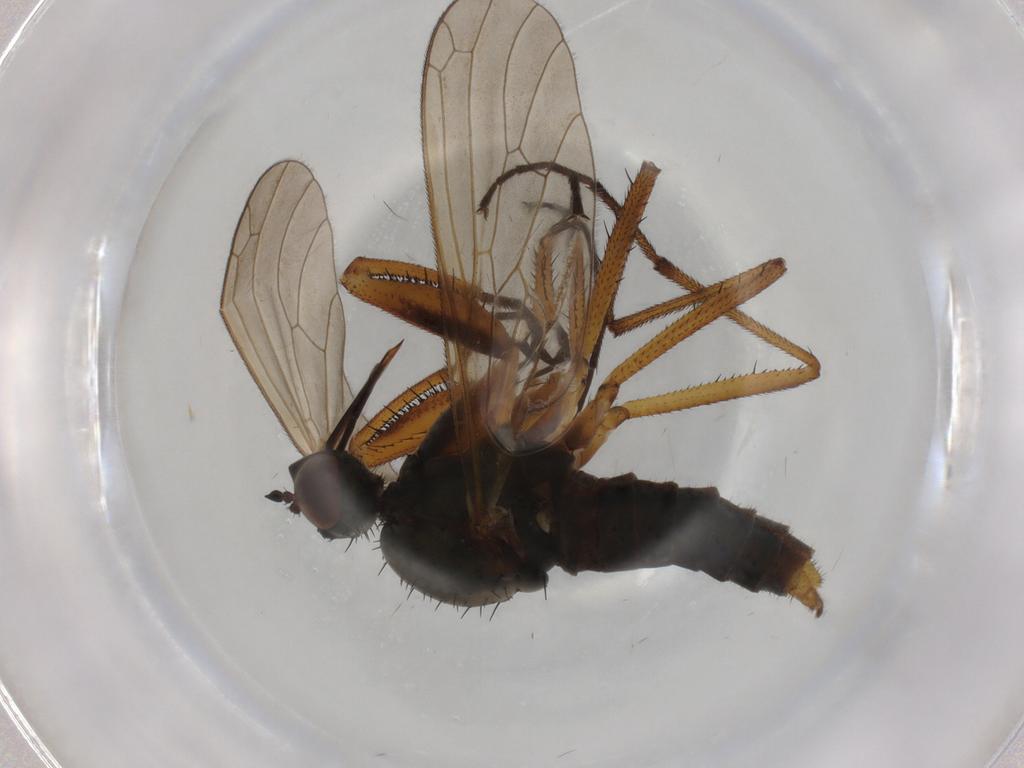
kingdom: Animalia
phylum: Arthropoda
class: Insecta
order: Diptera
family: Empididae
